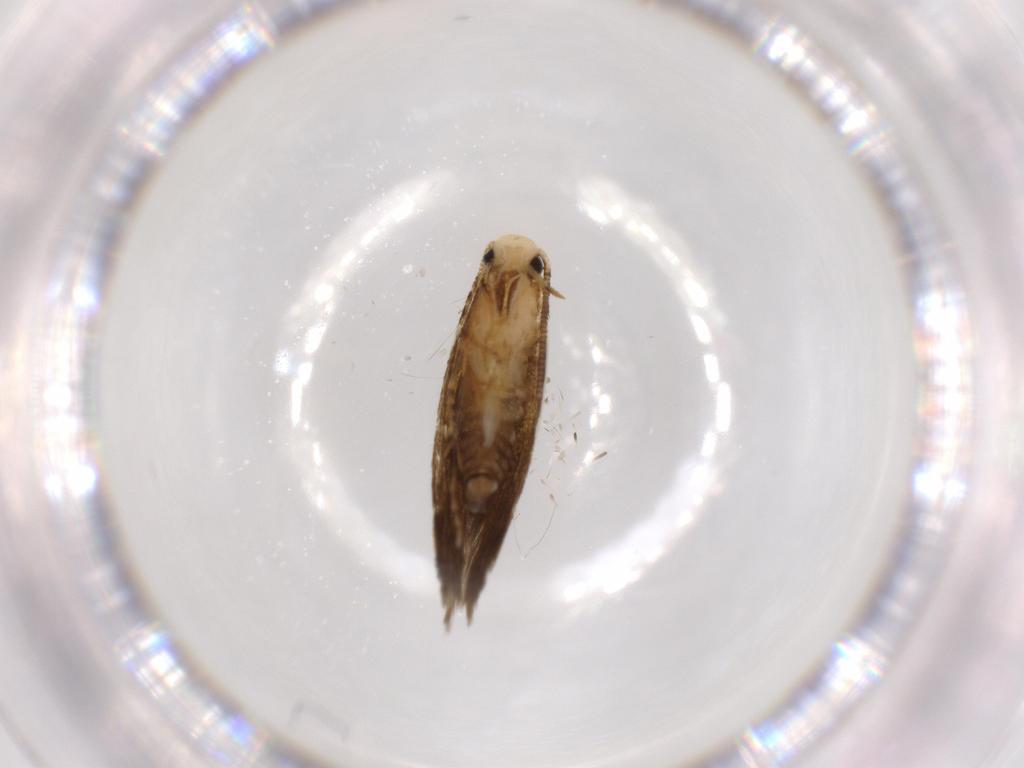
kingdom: Animalia
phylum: Arthropoda
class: Insecta
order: Lepidoptera
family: Tineidae
